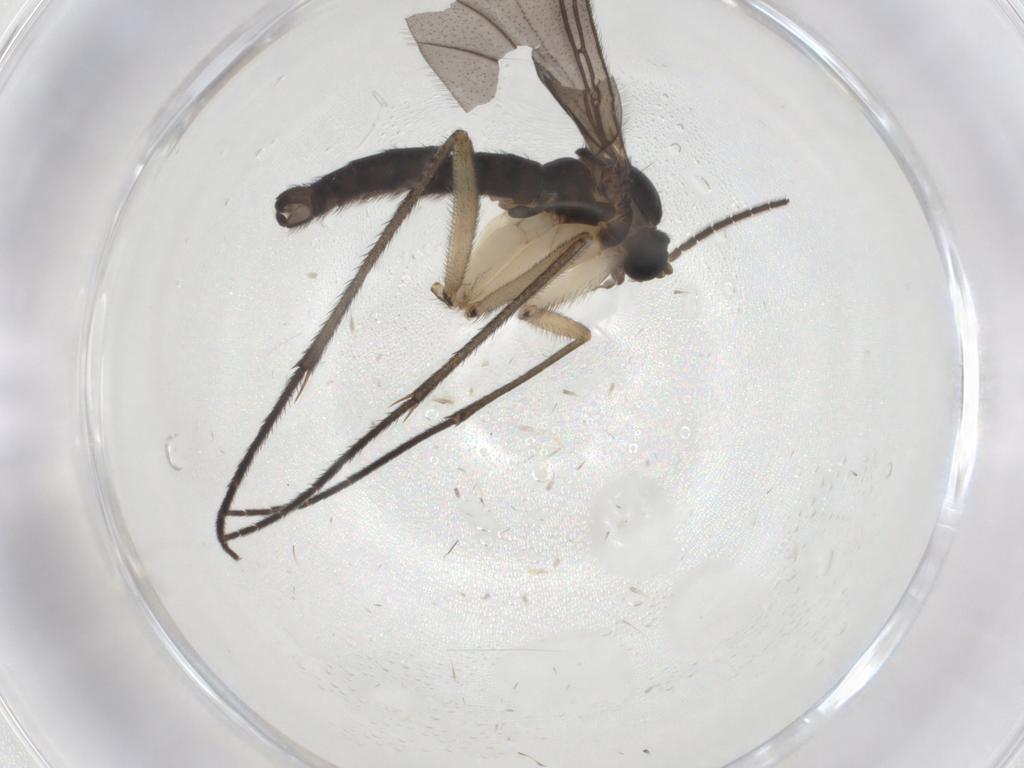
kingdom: Animalia
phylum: Arthropoda
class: Insecta
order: Diptera
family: Sciaridae
